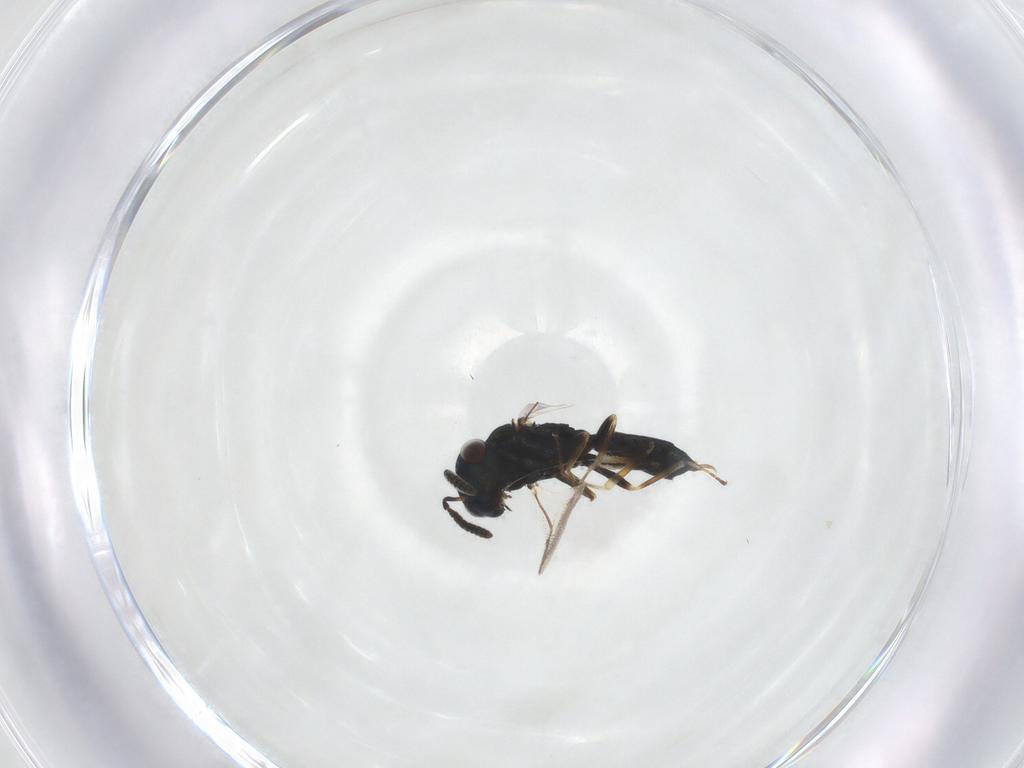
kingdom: Animalia
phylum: Arthropoda
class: Insecta
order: Hymenoptera
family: Pteromalidae
